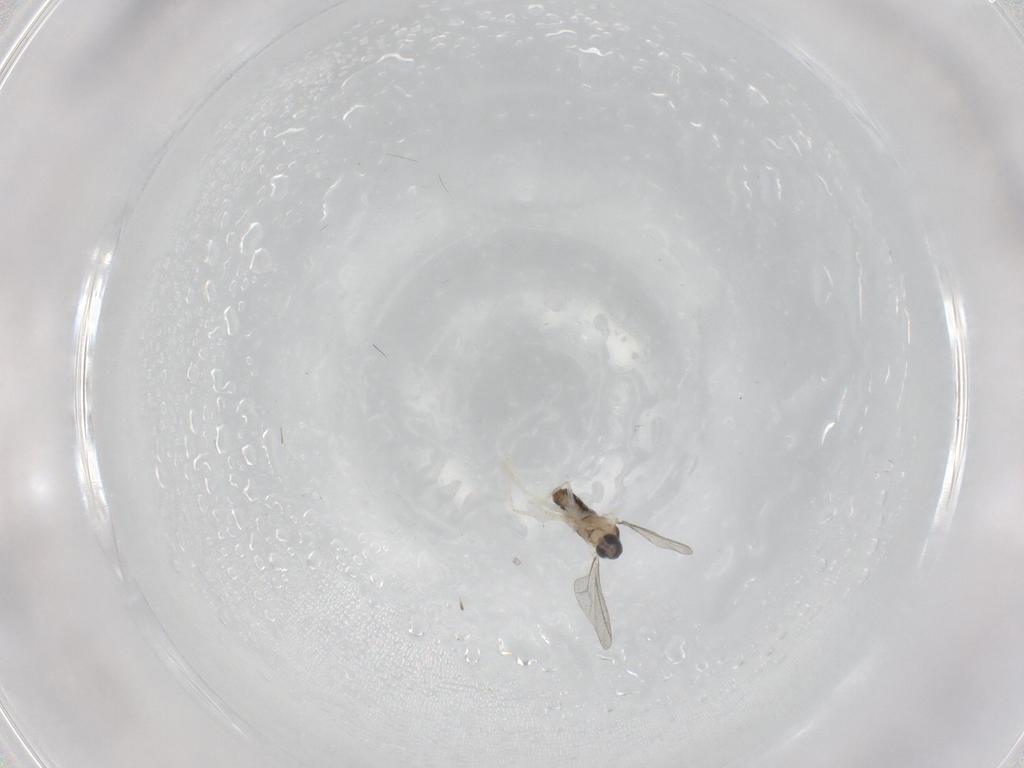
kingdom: Animalia
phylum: Arthropoda
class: Insecta
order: Diptera
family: Cecidomyiidae
